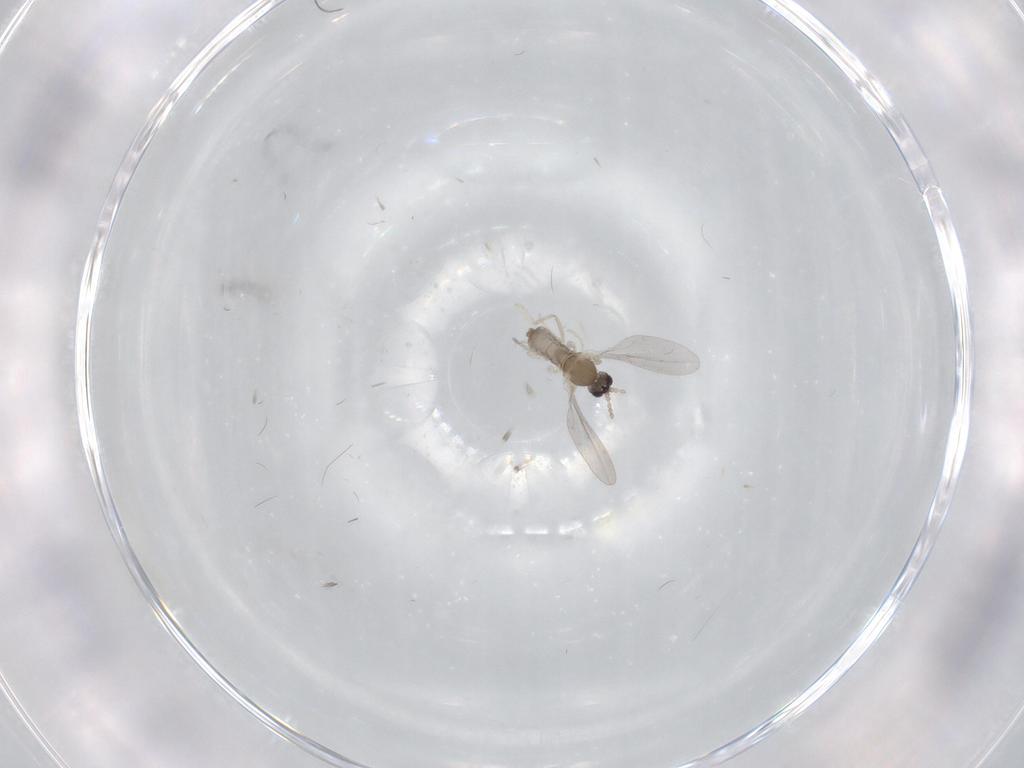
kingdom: Animalia
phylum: Arthropoda
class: Insecta
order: Diptera
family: Cecidomyiidae
